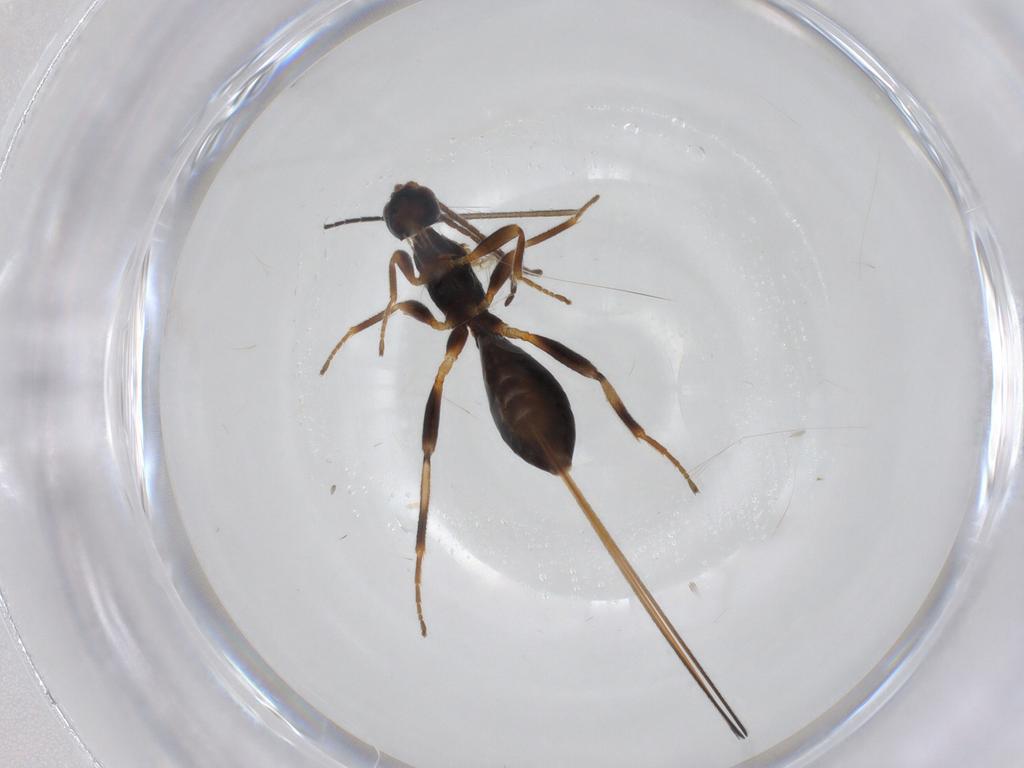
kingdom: Animalia
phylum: Arthropoda
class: Insecta
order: Hymenoptera
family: Braconidae
